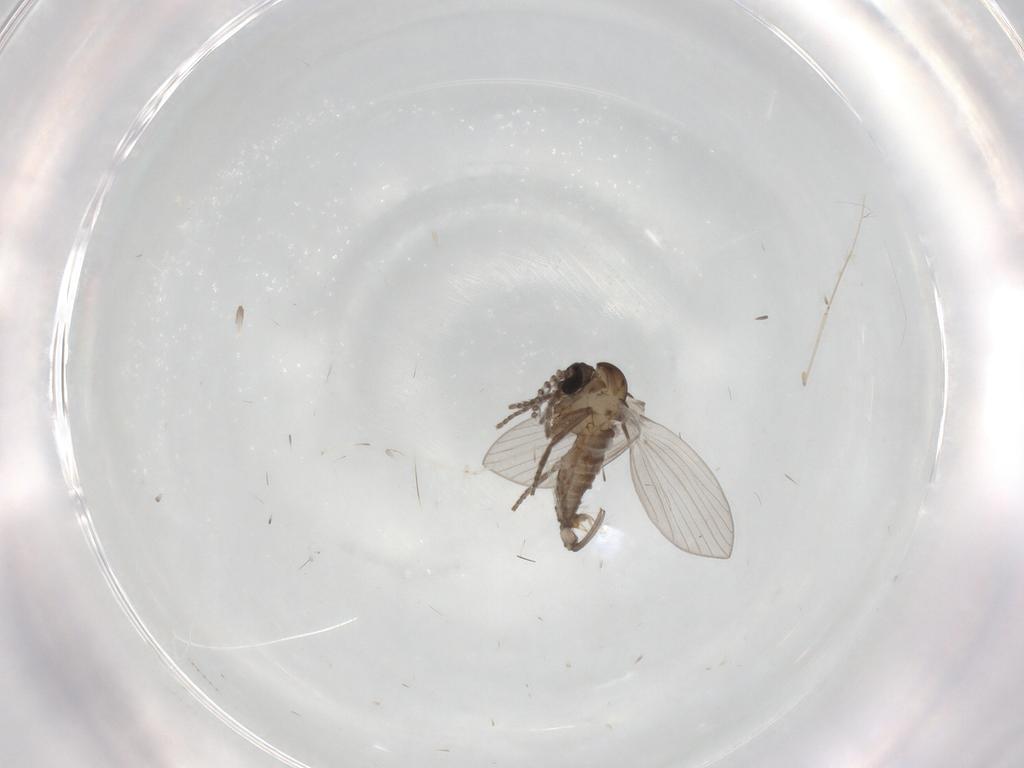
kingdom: Animalia
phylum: Arthropoda
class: Insecta
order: Diptera
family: Psychodidae
